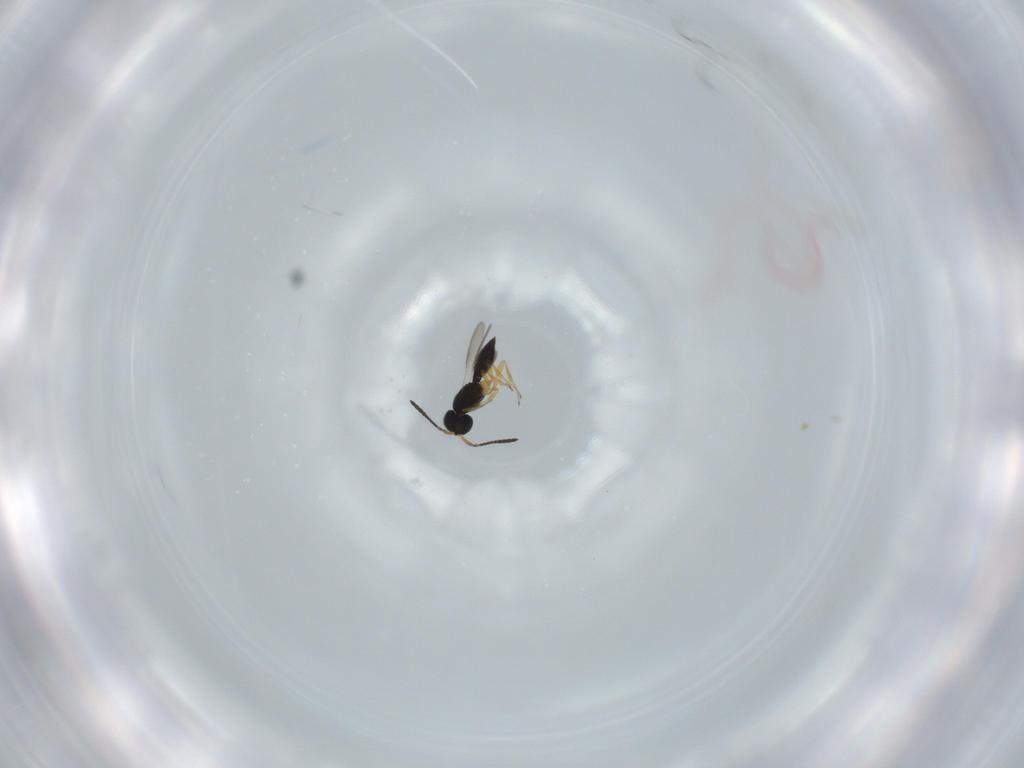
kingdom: Animalia
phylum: Arthropoda
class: Insecta
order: Hymenoptera
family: Scelionidae
